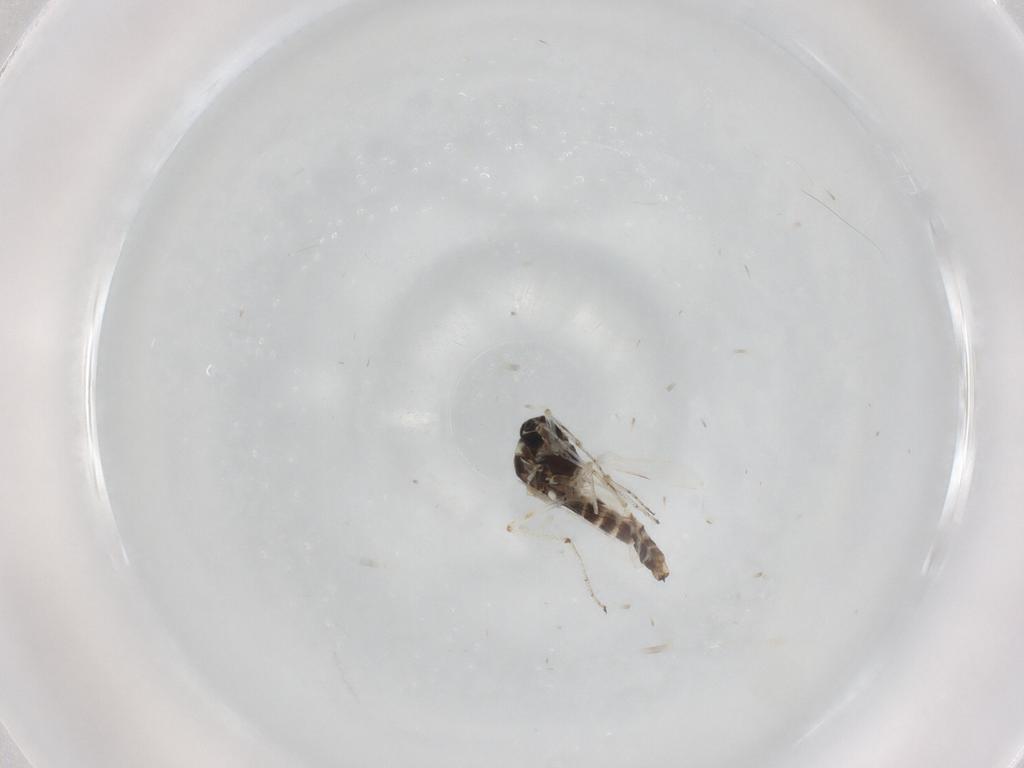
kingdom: Animalia
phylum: Arthropoda
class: Insecta
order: Diptera
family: Ceratopogonidae
